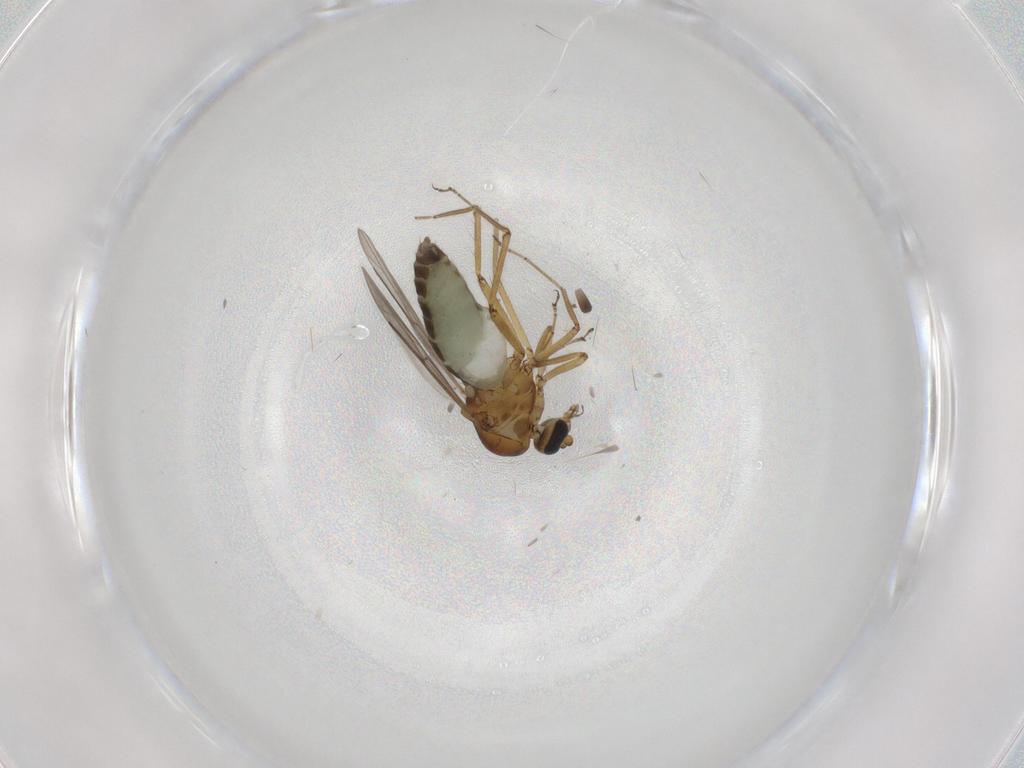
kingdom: Animalia
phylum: Arthropoda
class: Insecta
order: Diptera
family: Ceratopogonidae
